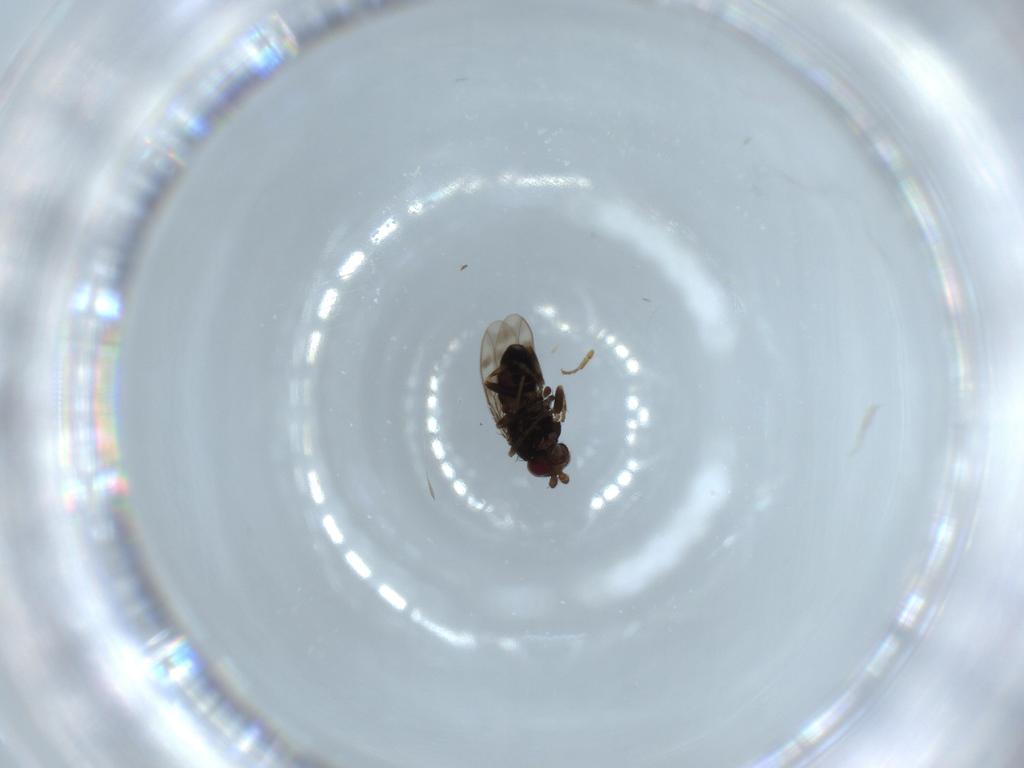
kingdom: Animalia
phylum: Arthropoda
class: Insecta
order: Diptera
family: Sphaeroceridae
